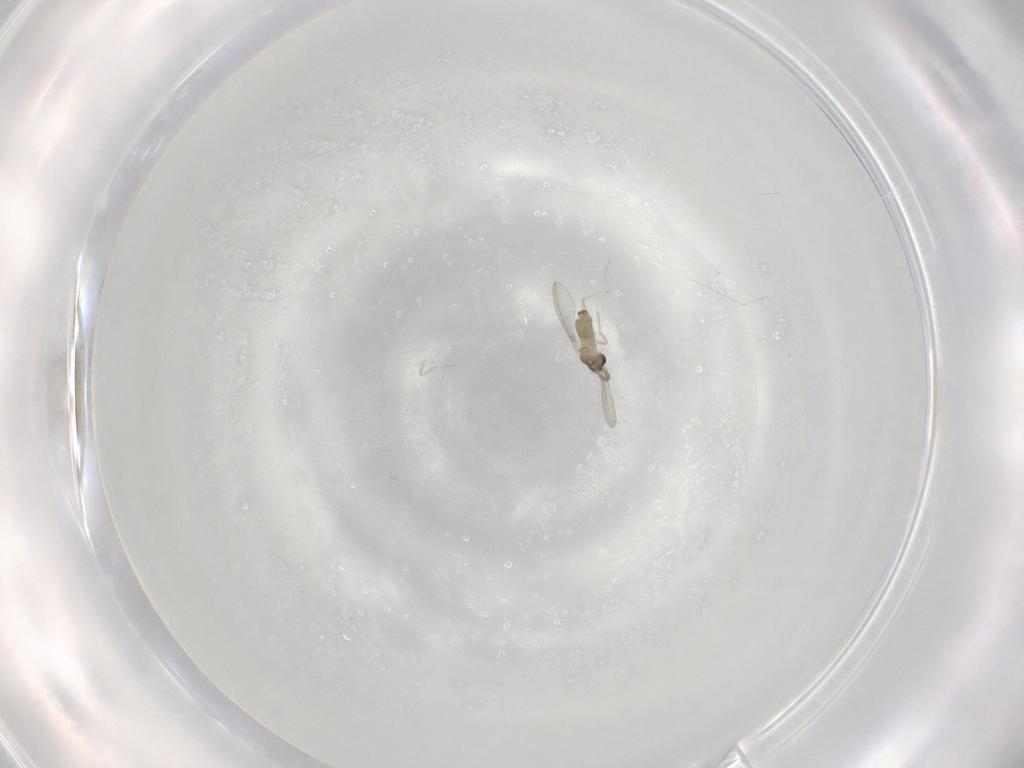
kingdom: Animalia
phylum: Arthropoda
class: Insecta
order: Diptera
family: Cecidomyiidae
